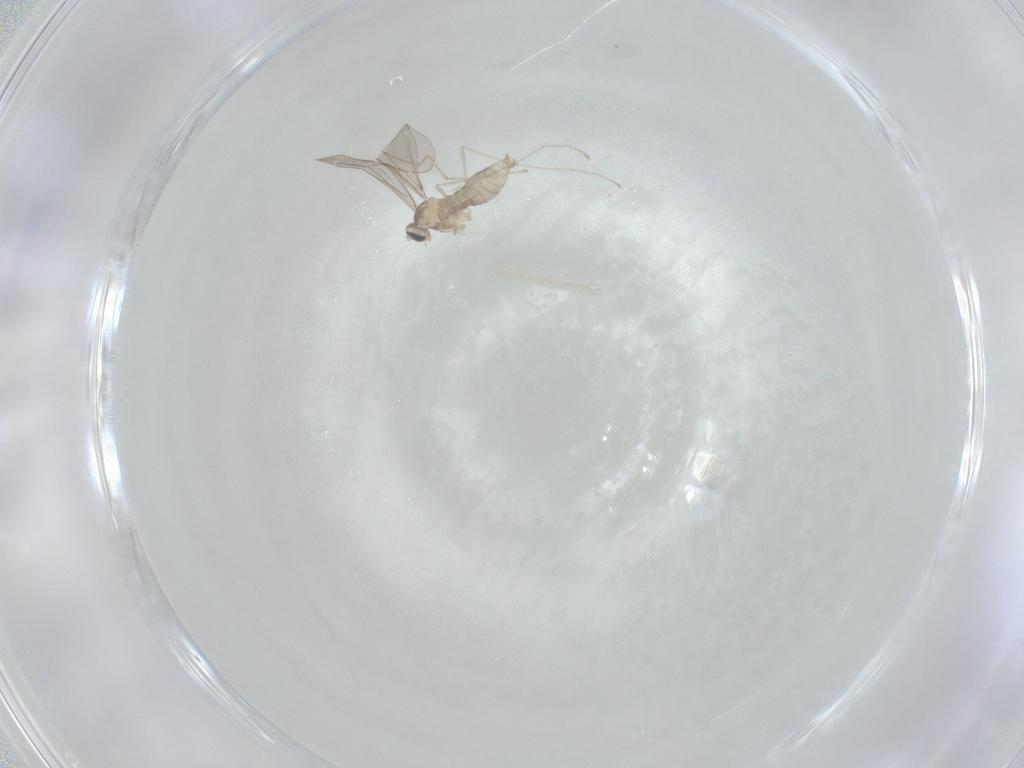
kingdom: Animalia
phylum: Arthropoda
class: Insecta
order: Diptera
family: Cecidomyiidae
